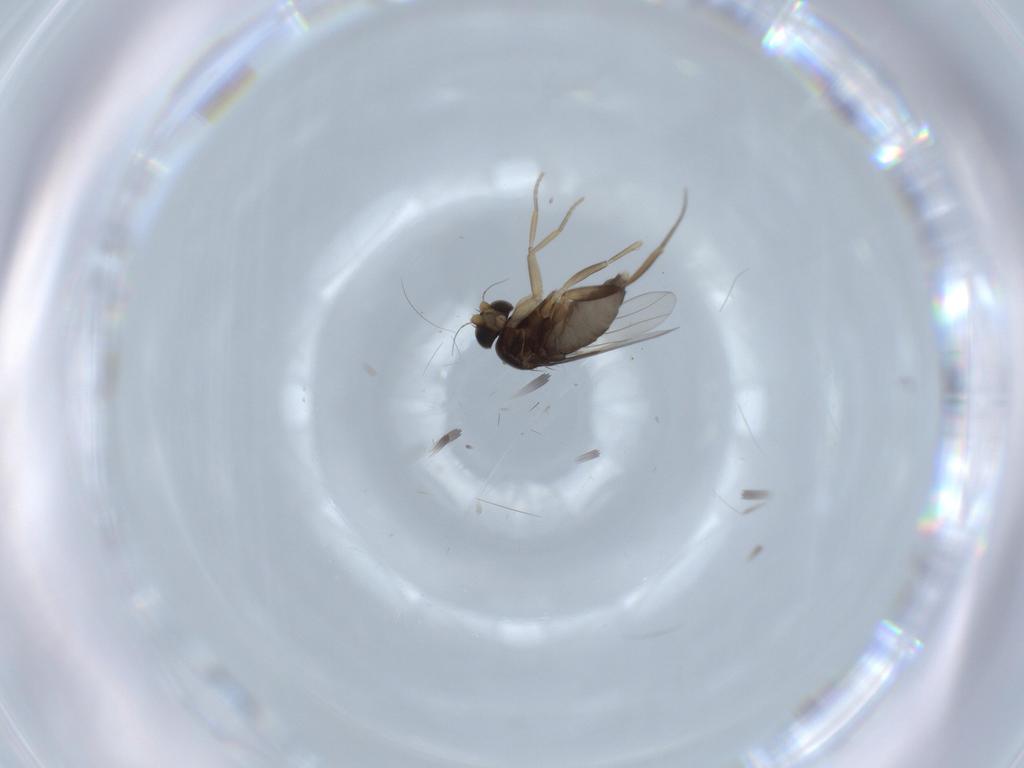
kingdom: Animalia
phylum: Arthropoda
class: Insecta
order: Diptera
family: Phoridae
